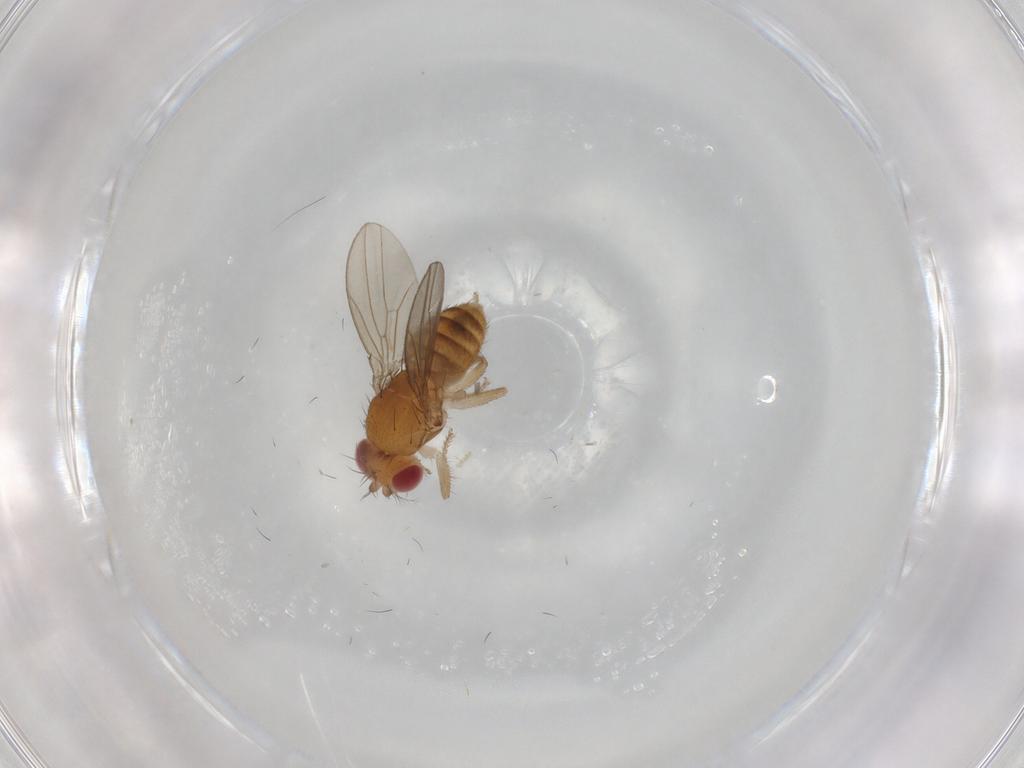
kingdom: Animalia
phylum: Arthropoda
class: Insecta
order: Diptera
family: Drosophilidae
